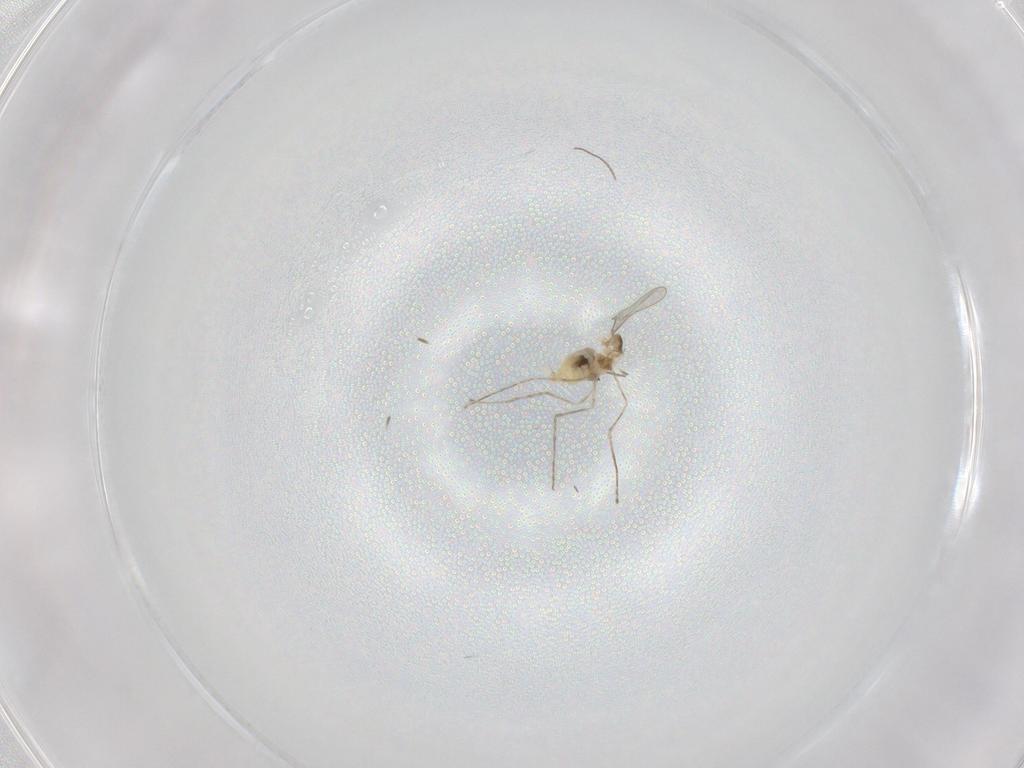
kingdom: Animalia
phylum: Arthropoda
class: Insecta
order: Diptera
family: Cecidomyiidae
